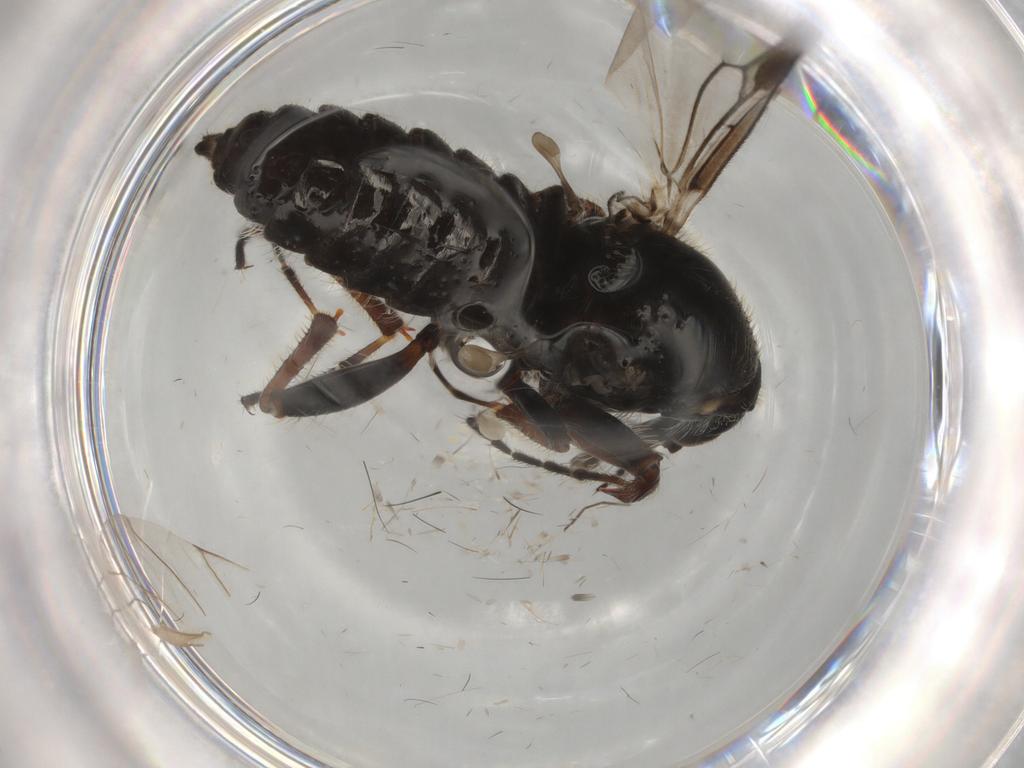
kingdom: Animalia
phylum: Arthropoda
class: Insecta
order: Diptera
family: Bibionidae
